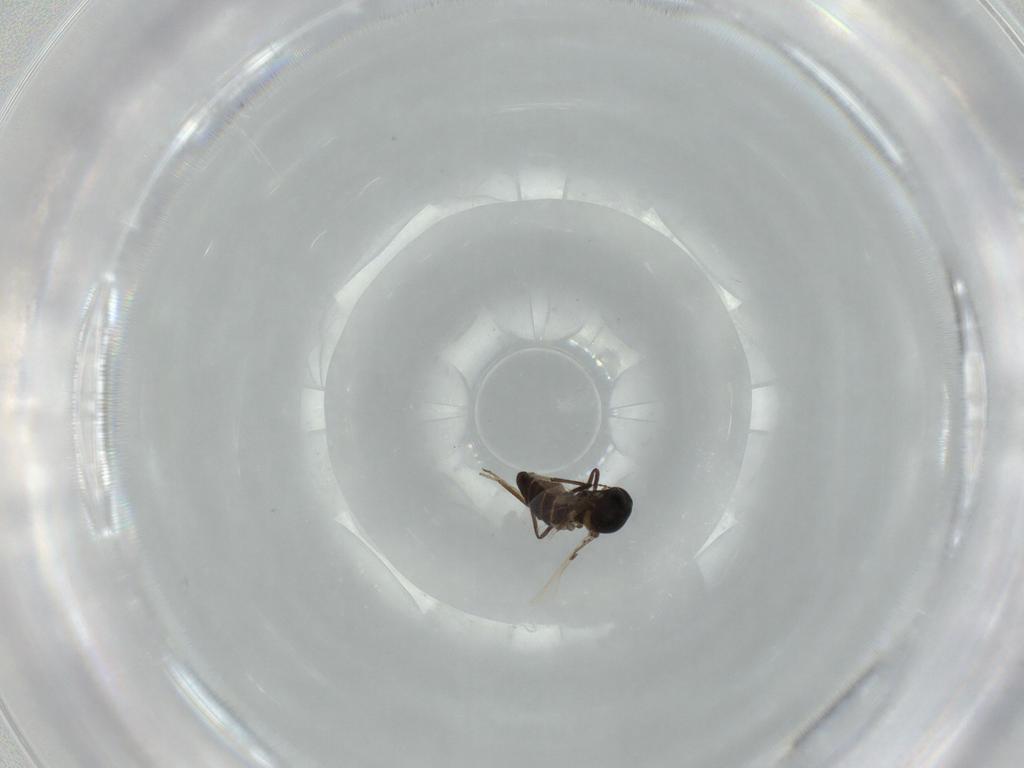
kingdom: Animalia
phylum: Arthropoda
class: Insecta
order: Diptera
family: Ceratopogonidae
